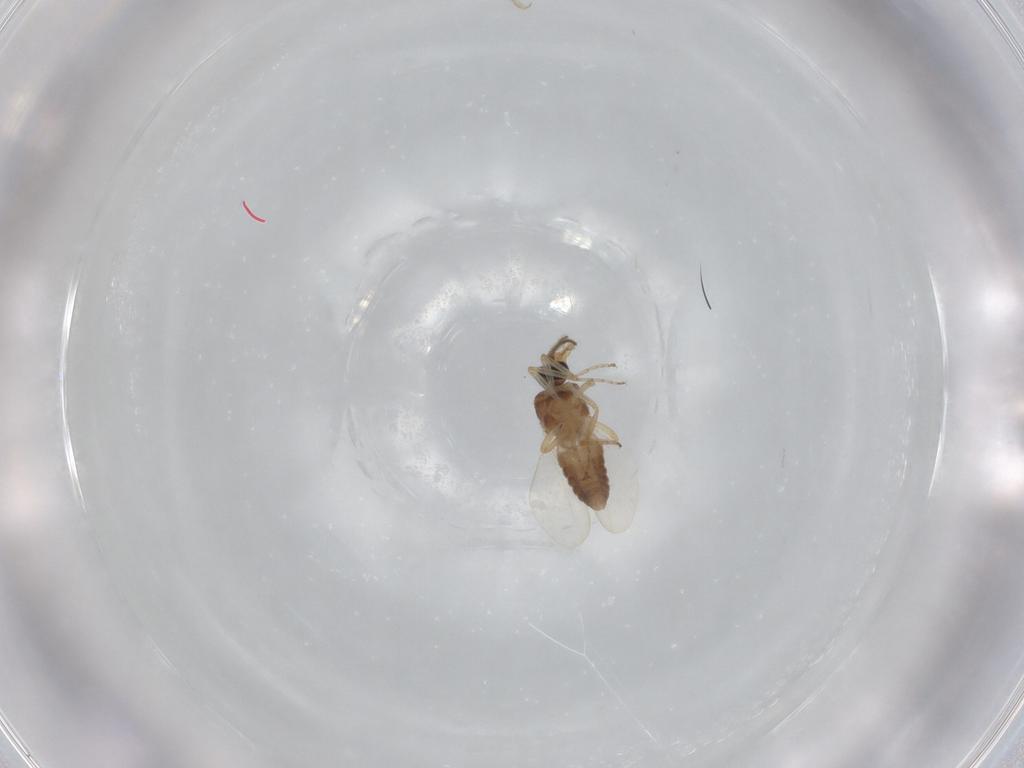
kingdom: Animalia
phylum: Arthropoda
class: Insecta
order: Diptera
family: Ceratopogonidae
